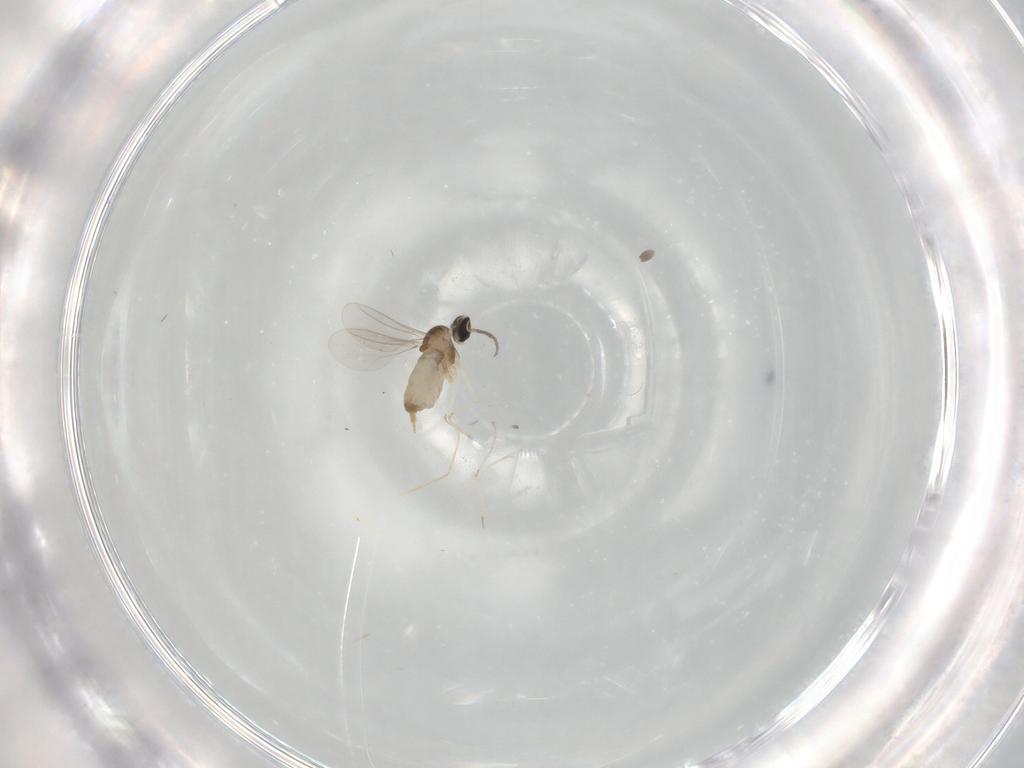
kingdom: Animalia
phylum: Arthropoda
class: Insecta
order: Diptera
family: Cecidomyiidae
